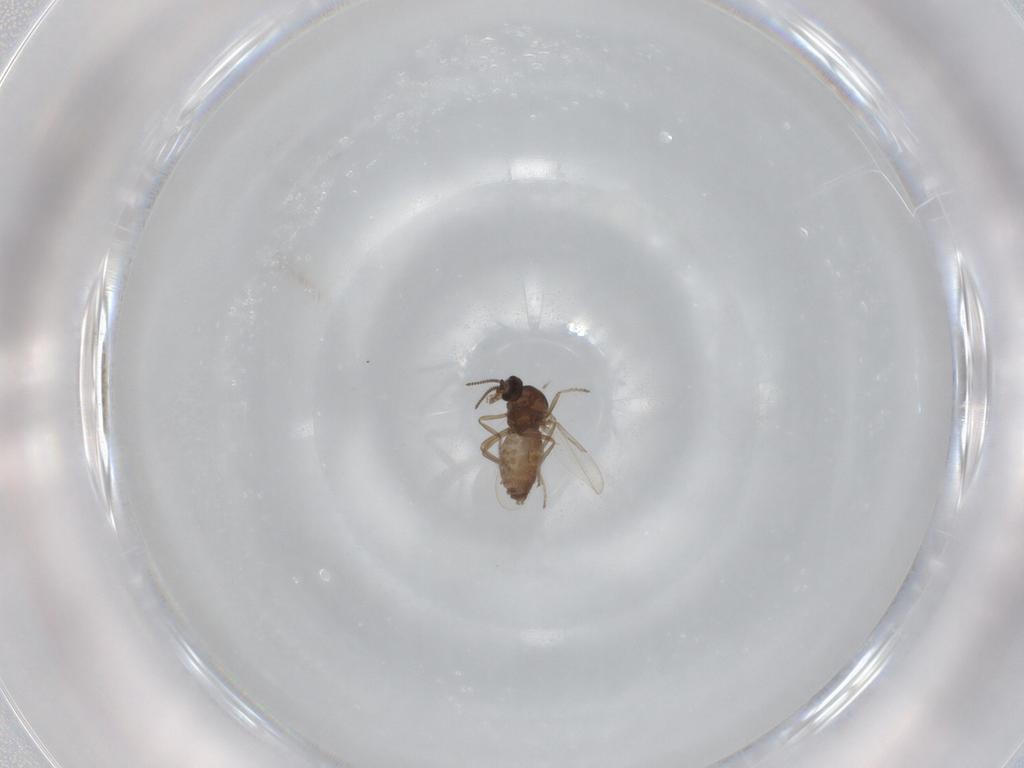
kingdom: Animalia
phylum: Arthropoda
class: Insecta
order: Diptera
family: Ceratopogonidae
